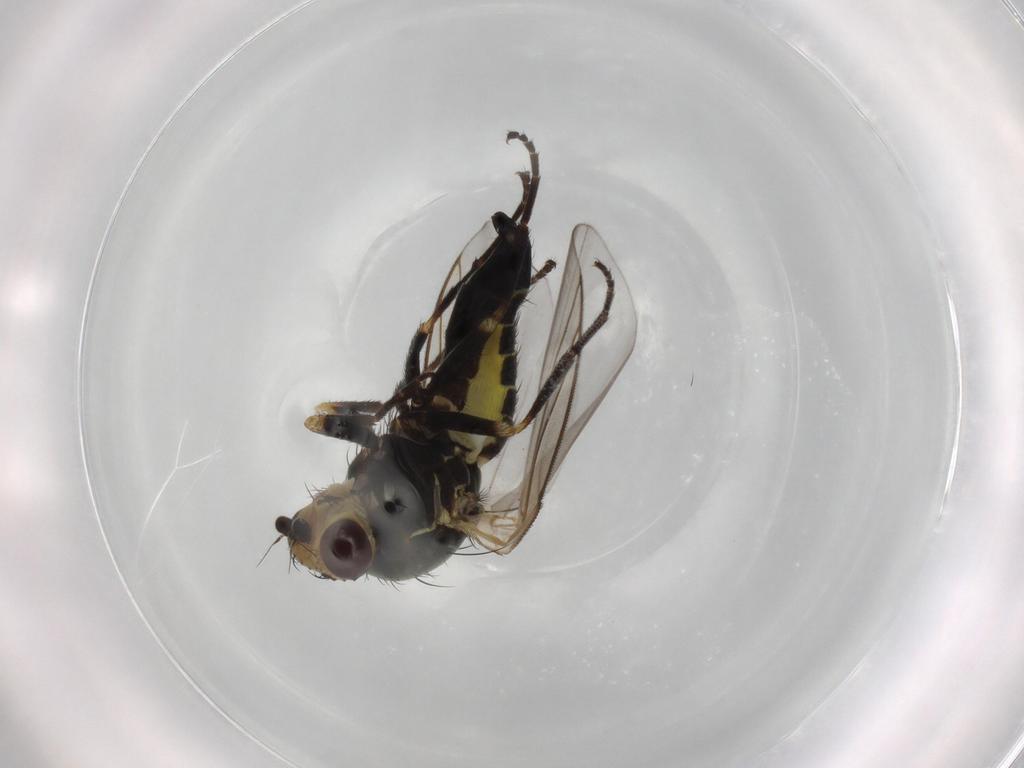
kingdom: Animalia
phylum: Arthropoda
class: Insecta
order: Diptera
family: Agromyzidae
